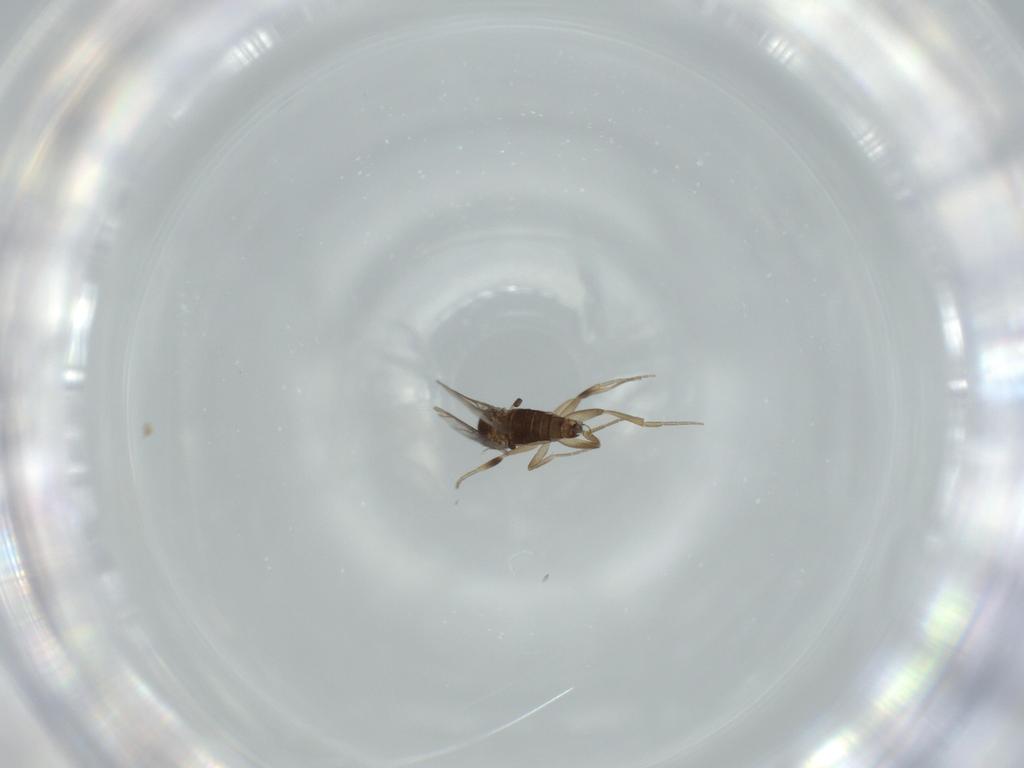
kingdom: Animalia
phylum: Arthropoda
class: Insecta
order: Diptera
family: Phoridae
